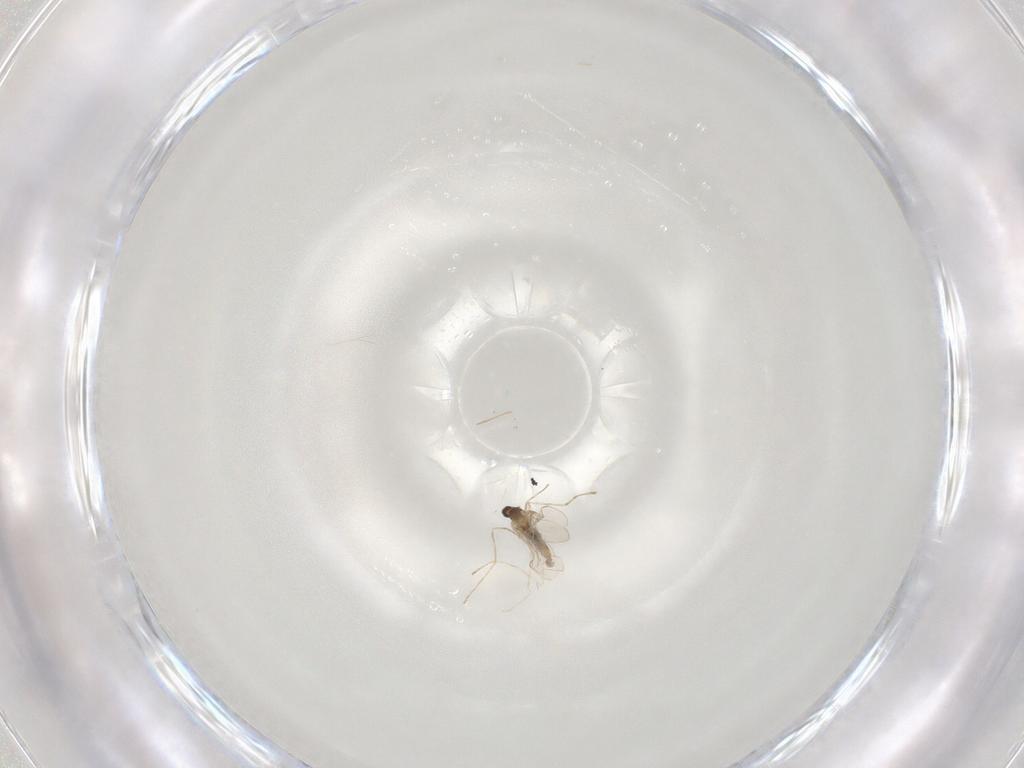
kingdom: Animalia
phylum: Arthropoda
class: Insecta
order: Diptera
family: Cecidomyiidae
